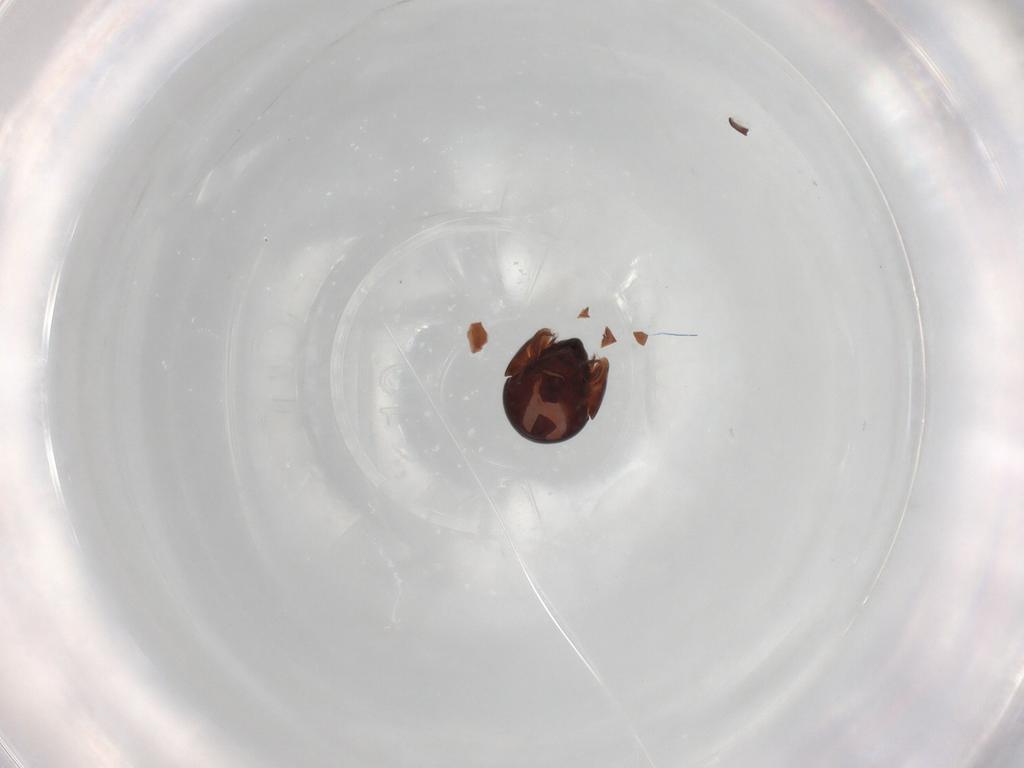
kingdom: Animalia
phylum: Arthropoda
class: Arachnida
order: Sarcoptiformes
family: Galumnidae
